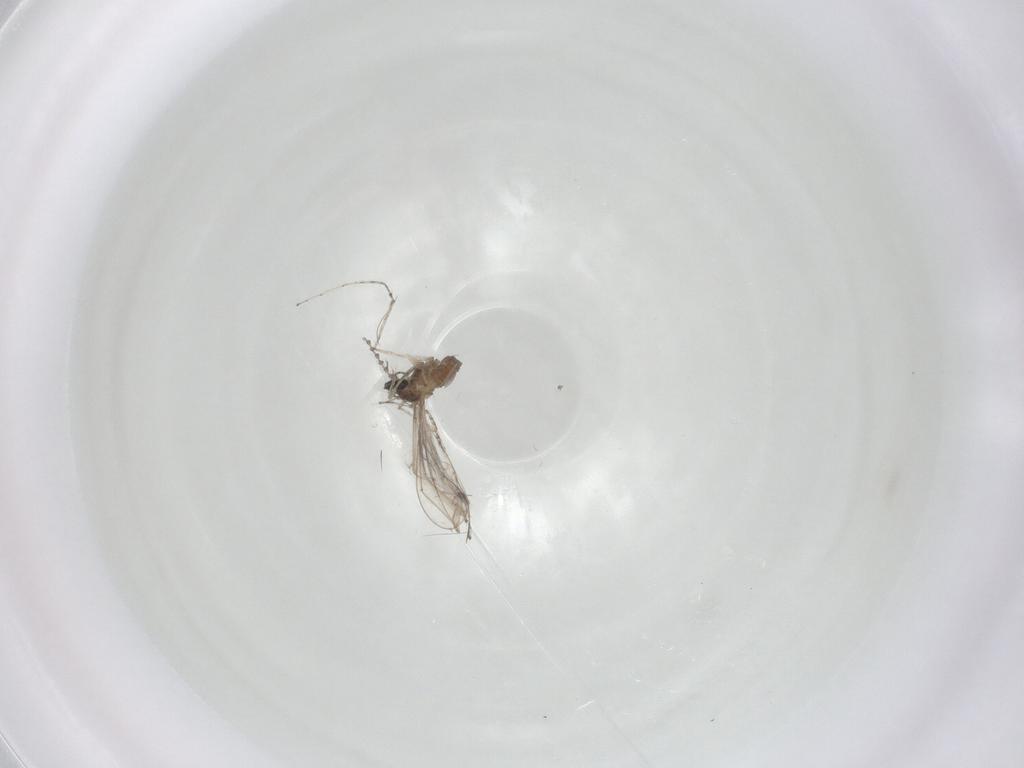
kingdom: Animalia
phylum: Arthropoda
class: Insecta
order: Diptera
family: Cecidomyiidae
